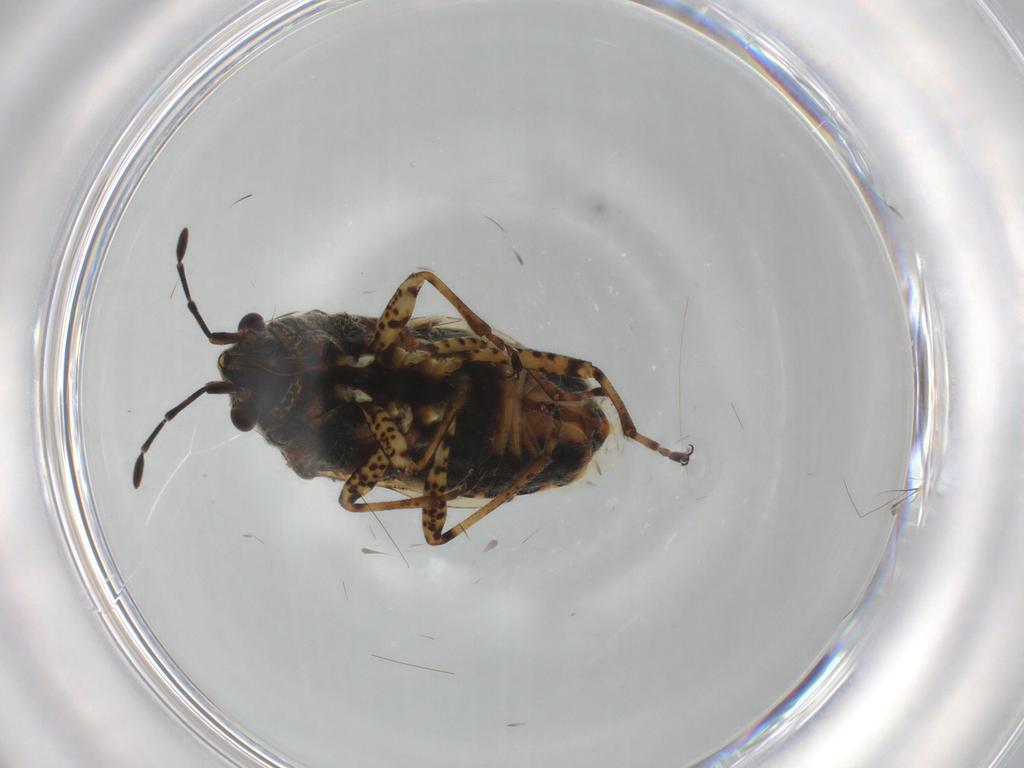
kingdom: Animalia
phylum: Arthropoda
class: Insecta
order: Hemiptera
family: Lygaeidae
